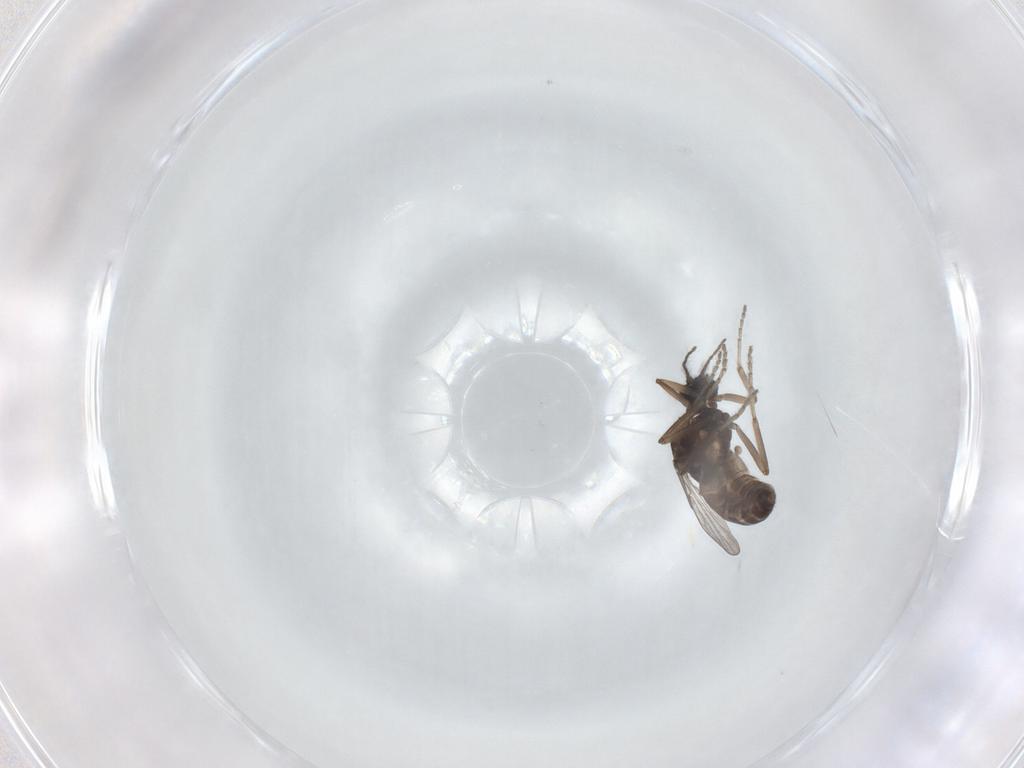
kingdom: Animalia
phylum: Arthropoda
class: Insecta
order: Diptera
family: Ceratopogonidae
